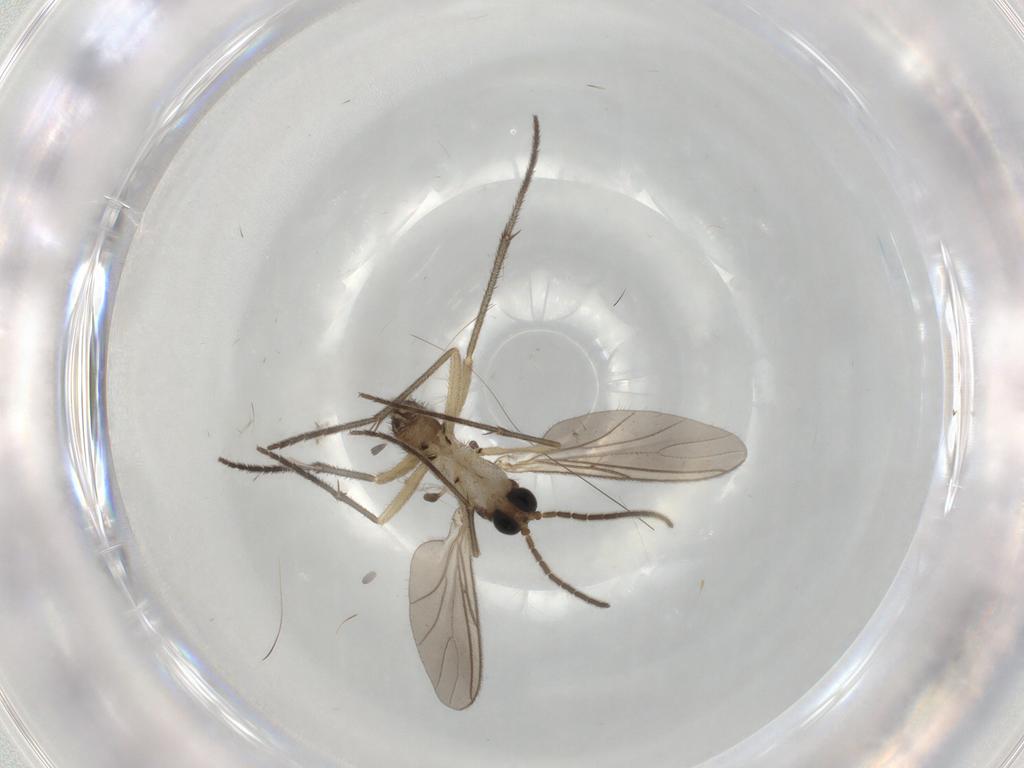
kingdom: Animalia
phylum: Arthropoda
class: Insecta
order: Diptera
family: Sciaridae
